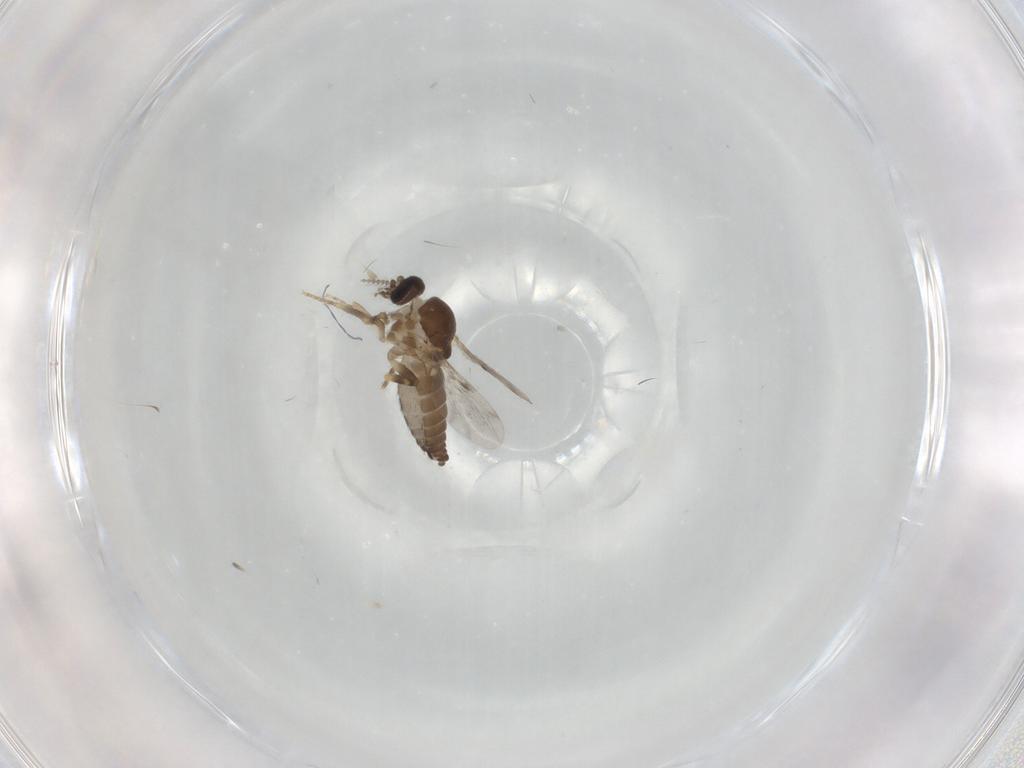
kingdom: Animalia
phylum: Arthropoda
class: Insecta
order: Diptera
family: Ceratopogonidae
